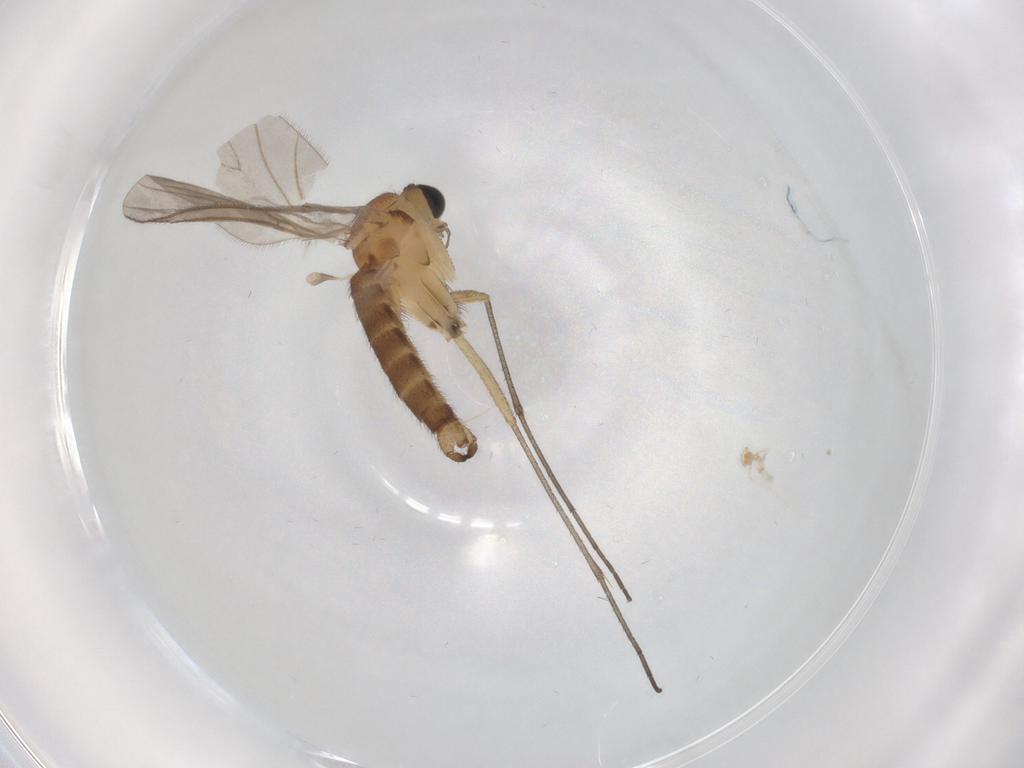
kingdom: Animalia
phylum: Arthropoda
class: Insecta
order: Diptera
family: Sciaridae
